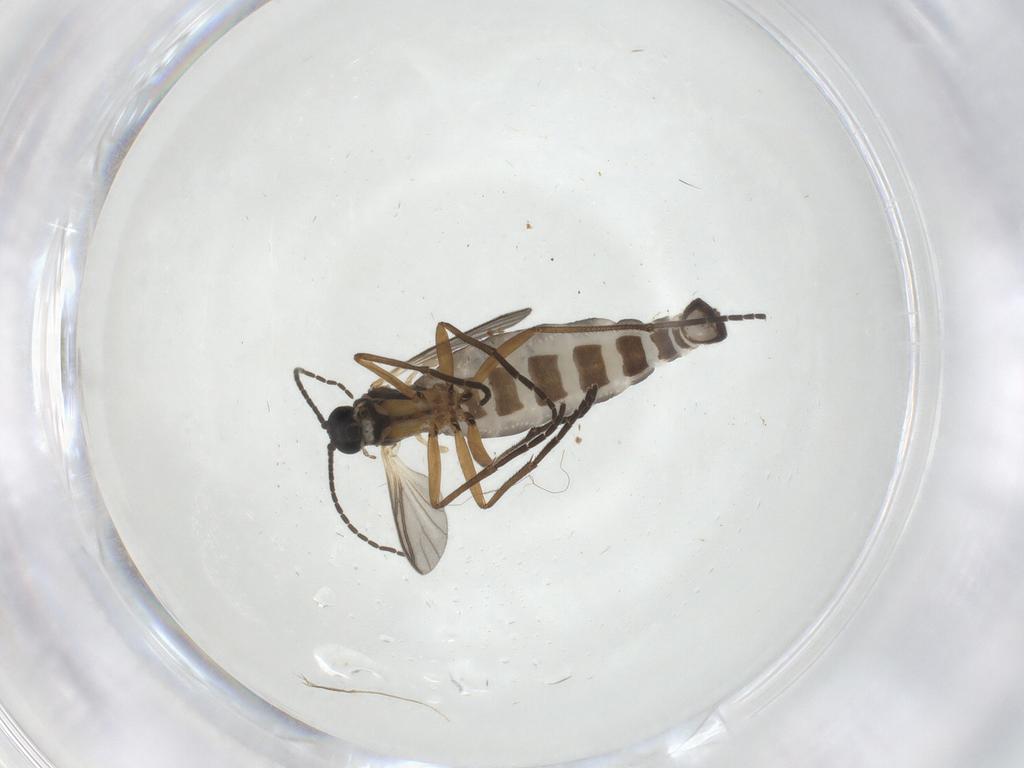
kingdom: Animalia
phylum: Arthropoda
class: Insecta
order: Diptera
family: Sciaridae
